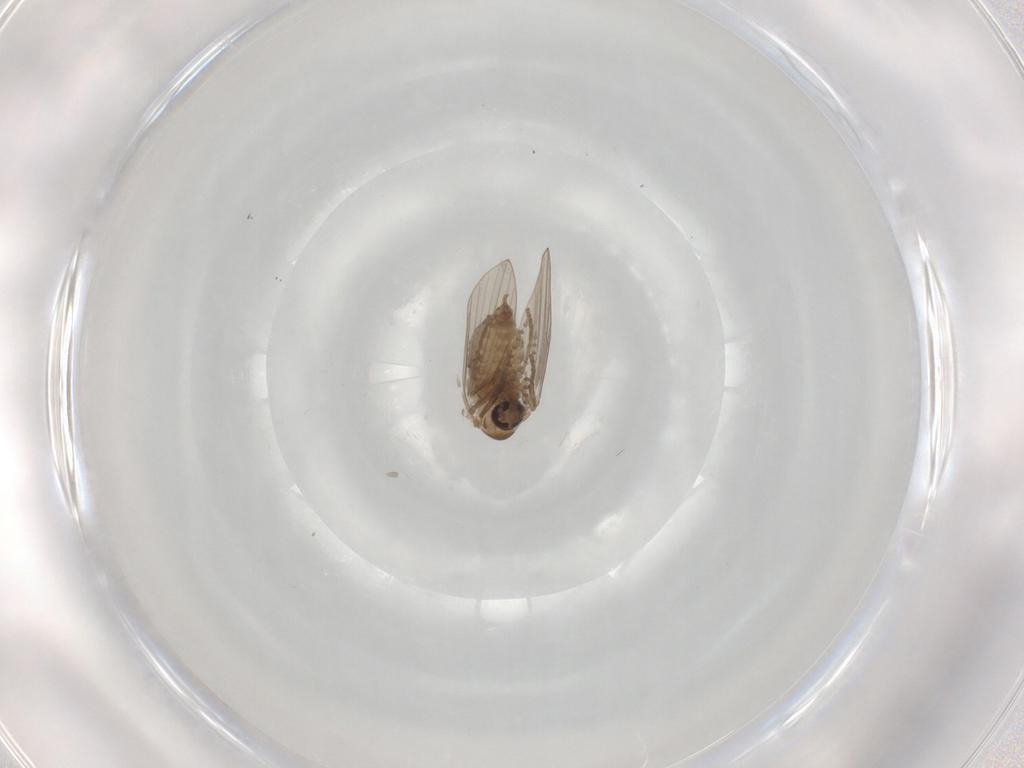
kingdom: Animalia
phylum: Arthropoda
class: Insecta
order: Diptera
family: Psychodidae
